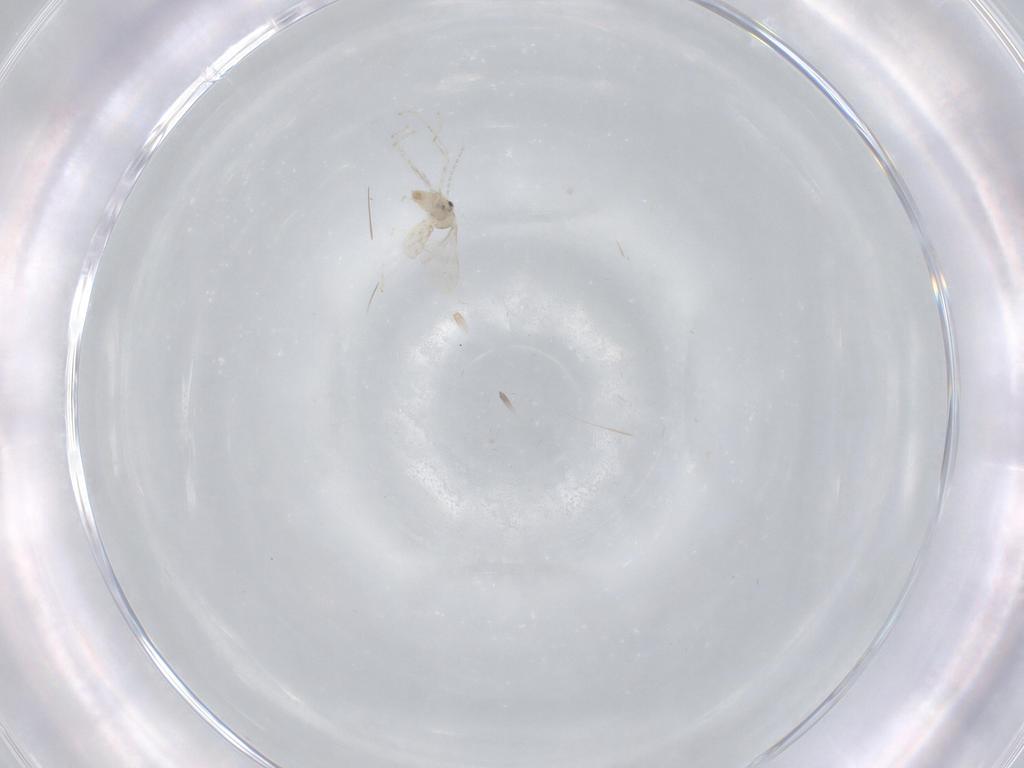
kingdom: Animalia
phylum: Arthropoda
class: Insecta
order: Diptera
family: Cecidomyiidae
